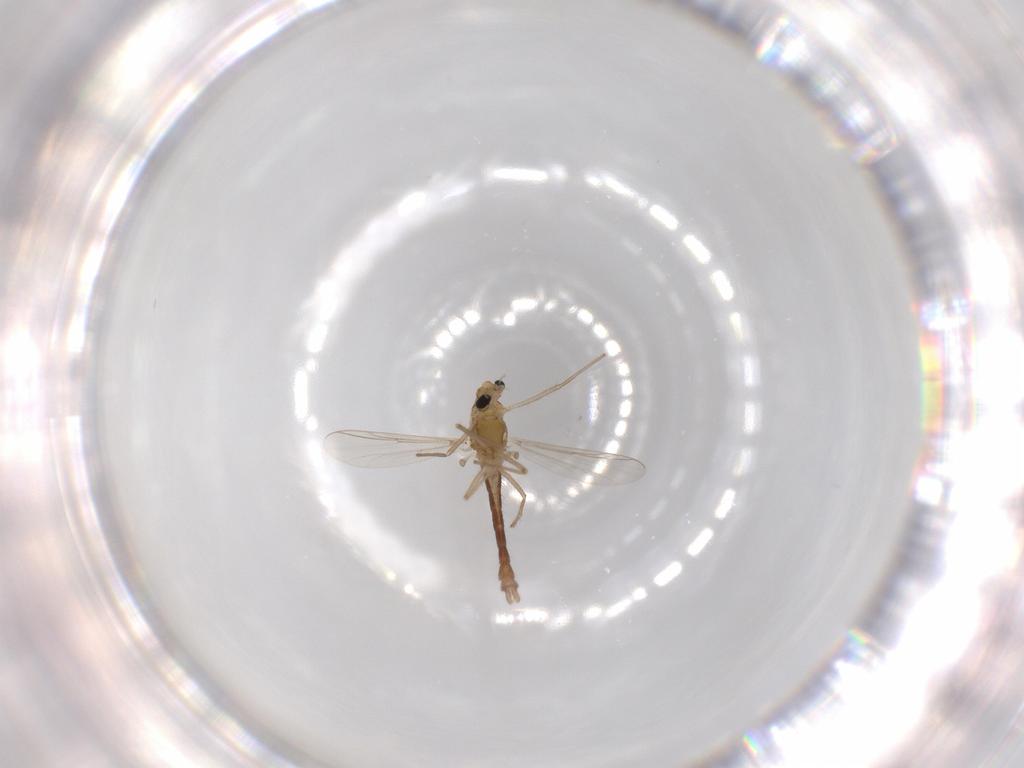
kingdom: Animalia
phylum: Arthropoda
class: Insecta
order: Diptera
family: Chironomidae
